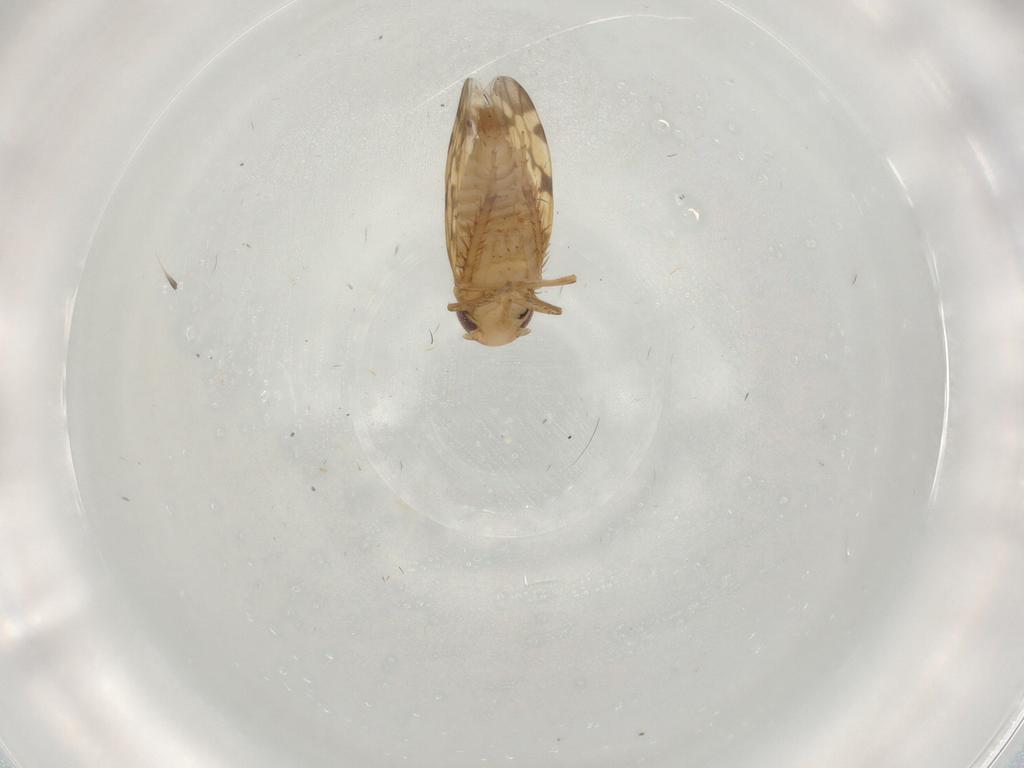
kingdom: Animalia
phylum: Arthropoda
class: Insecta
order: Hemiptera
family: Cicadellidae
